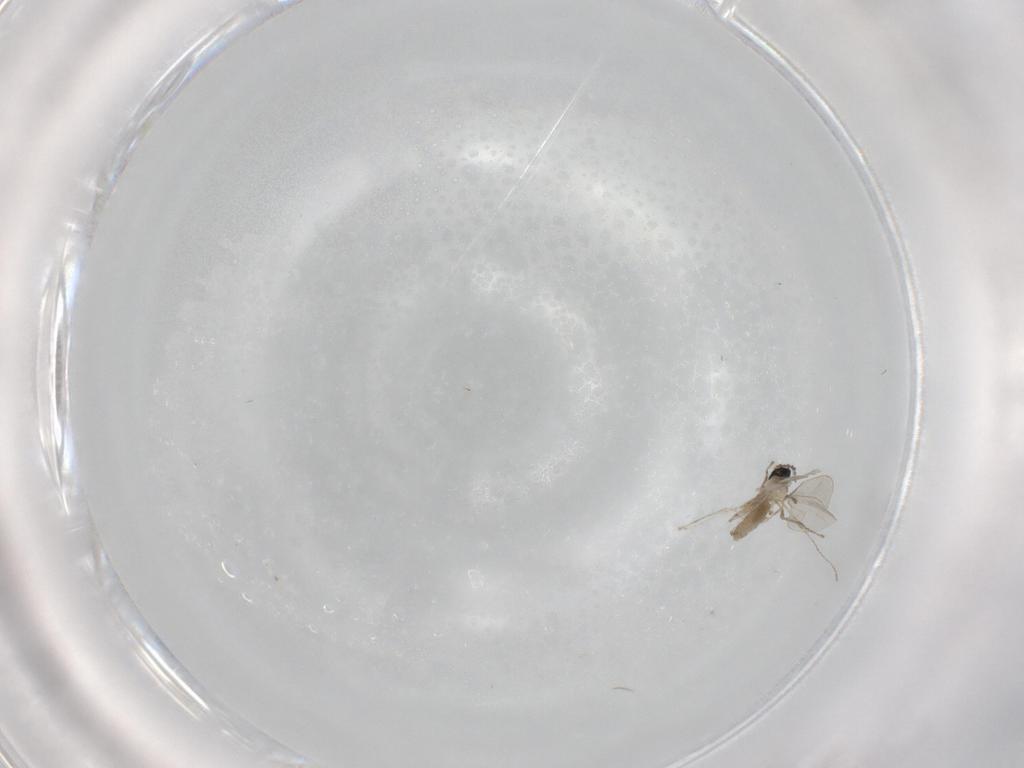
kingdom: Animalia
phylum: Arthropoda
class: Insecta
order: Diptera
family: Cecidomyiidae
